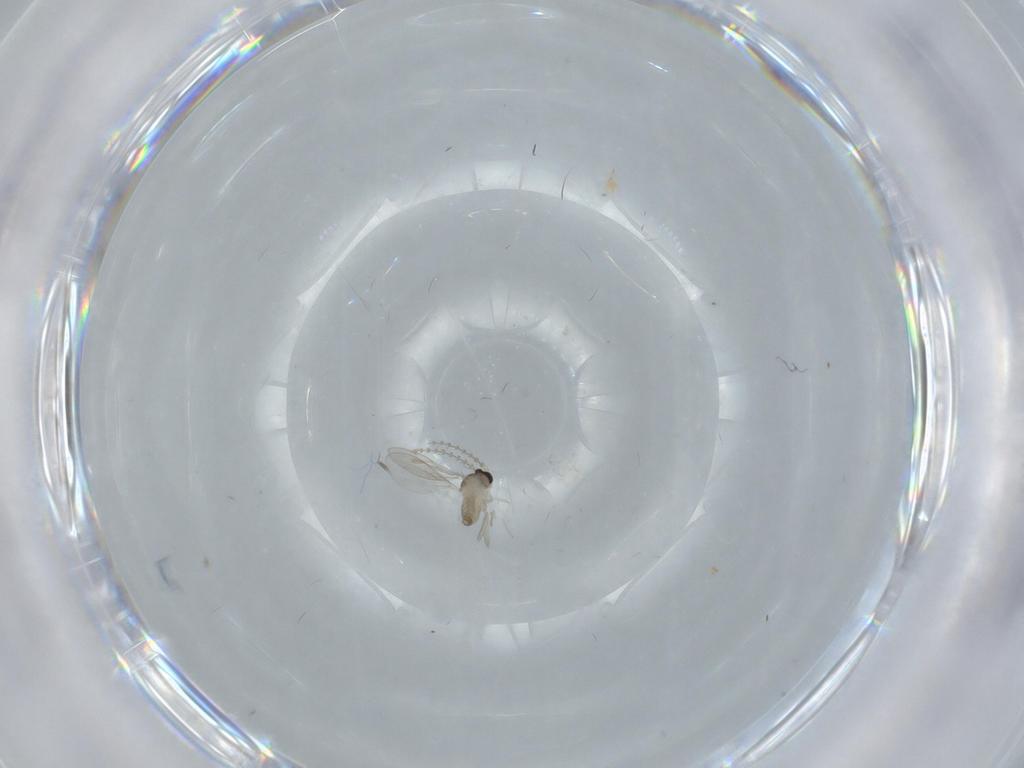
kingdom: Animalia
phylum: Arthropoda
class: Insecta
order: Diptera
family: Cecidomyiidae
